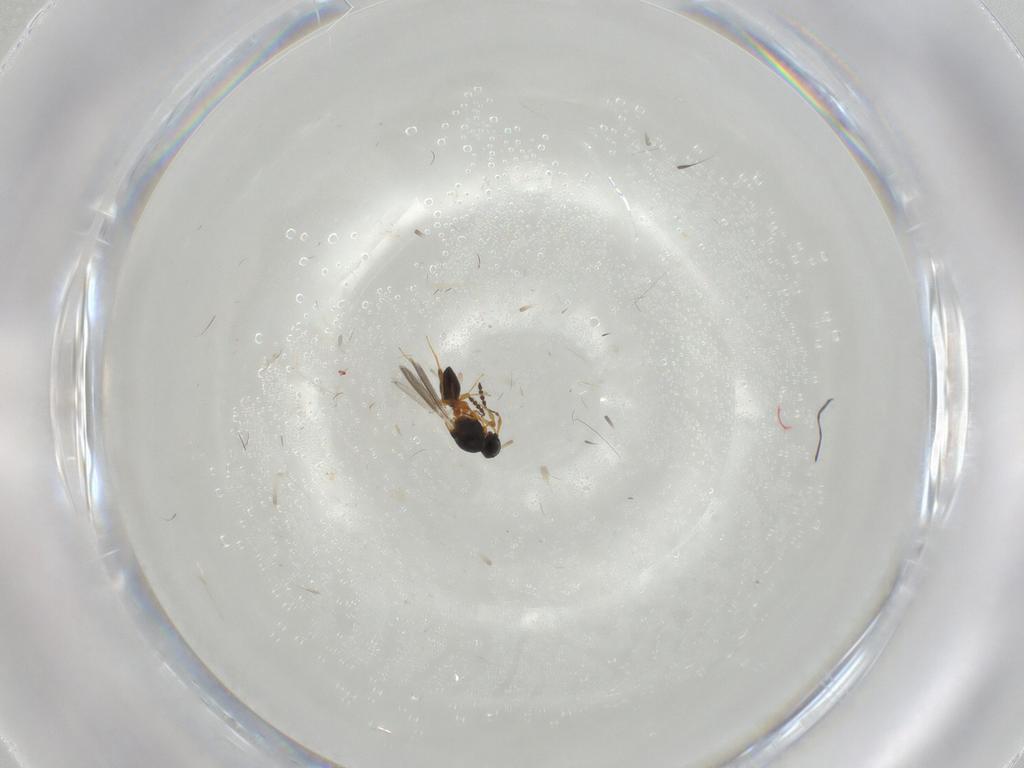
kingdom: Animalia
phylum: Arthropoda
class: Insecta
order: Hymenoptera
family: Platygastridae
